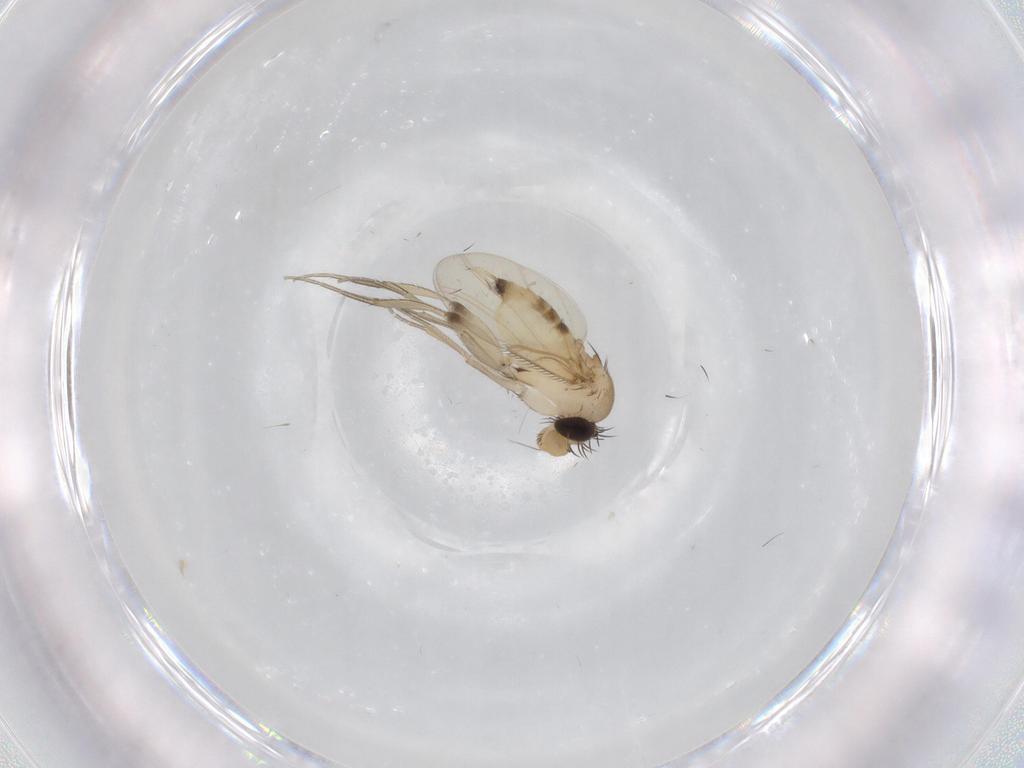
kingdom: Animalia
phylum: Arthropoda
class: Insecta
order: Diptera
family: Phoridae
